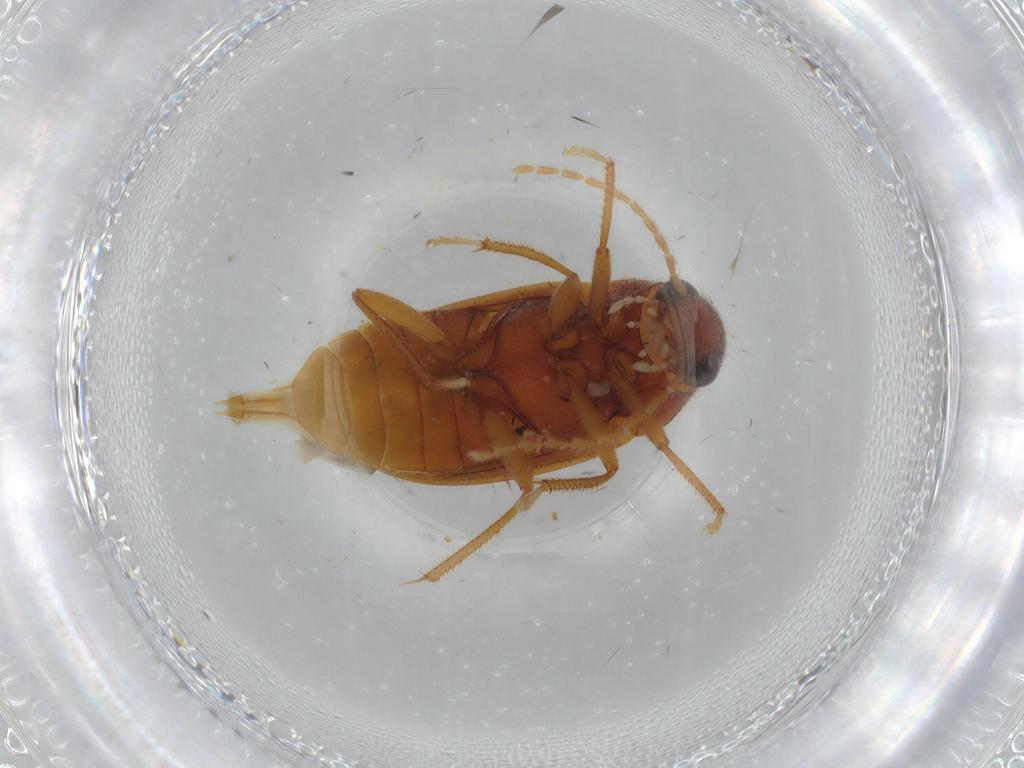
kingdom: Animalia
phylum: Arthropoda
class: Insecta
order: Coleoptera
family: Ptilodactylidae
